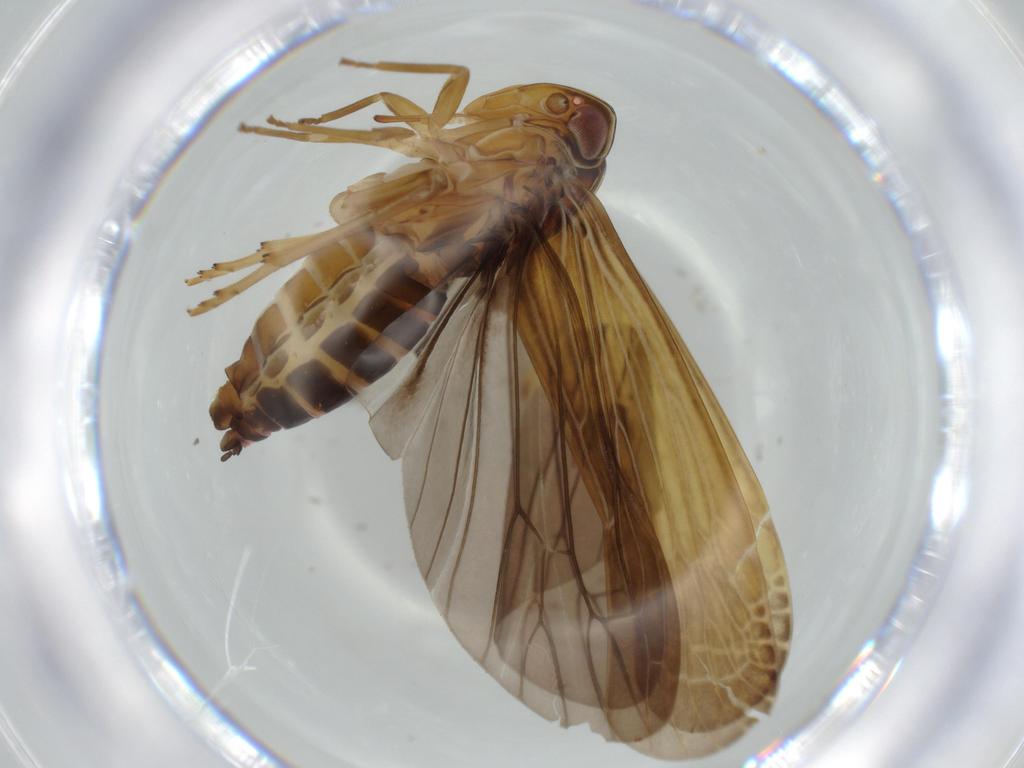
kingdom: Animalia
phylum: Arthropoda
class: Insecta
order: Hemiptera
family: Achilidae
